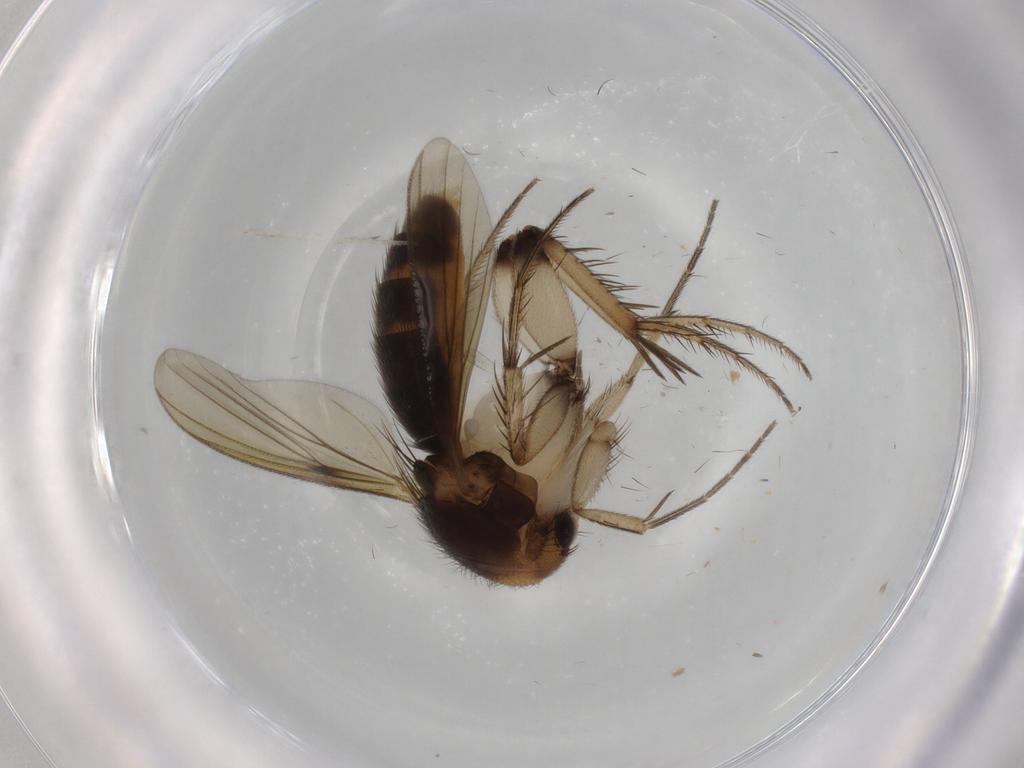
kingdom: Animalia
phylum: Arthropoda
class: Insecta
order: Diptera
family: Mycetophilidae
